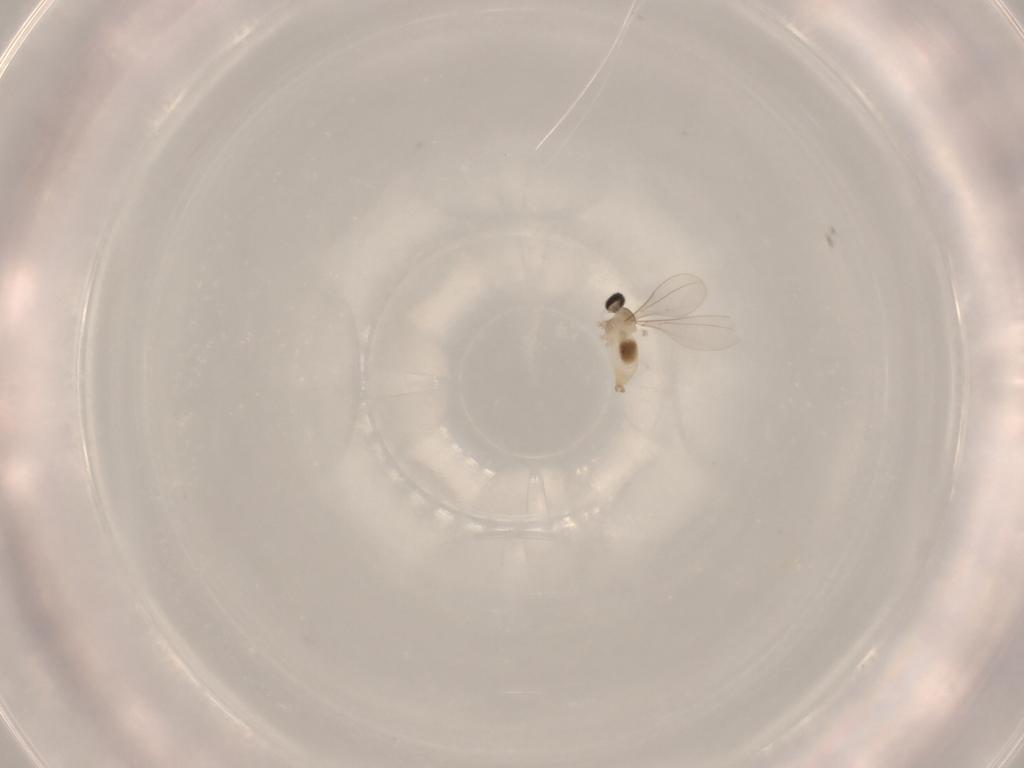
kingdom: Animalia
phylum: Arthropoda
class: Insecta
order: Diptera
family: Cecidomyiidae
